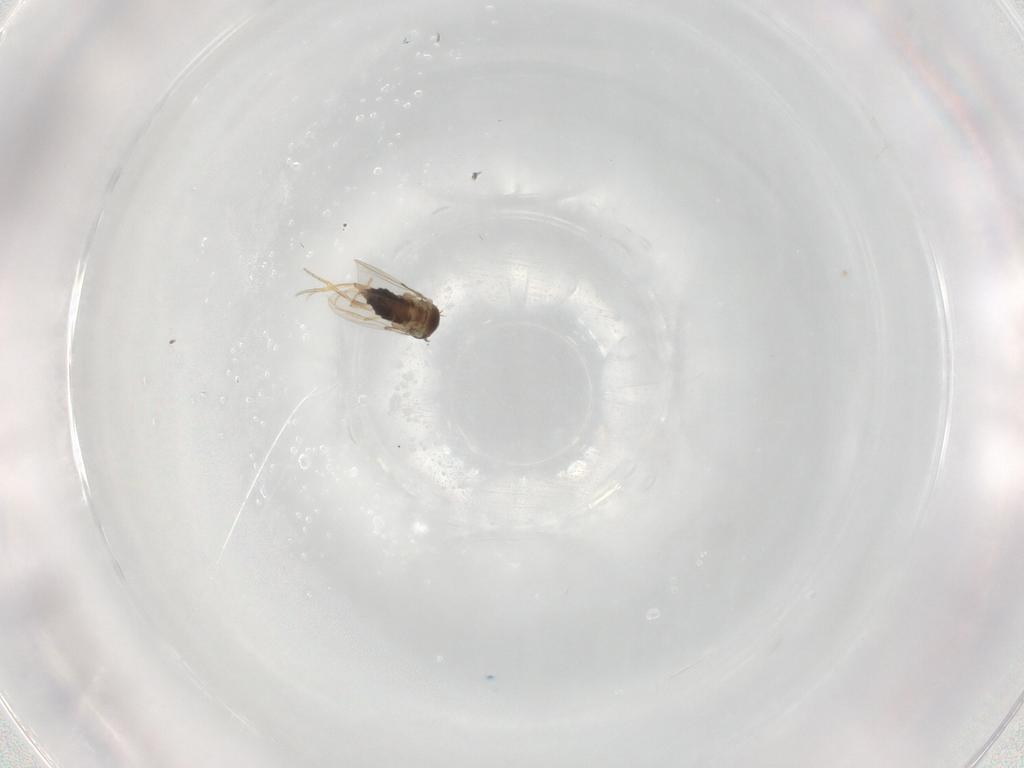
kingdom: Animalia
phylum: Arthropoda
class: Insecta
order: Diptera
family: Phoridae
